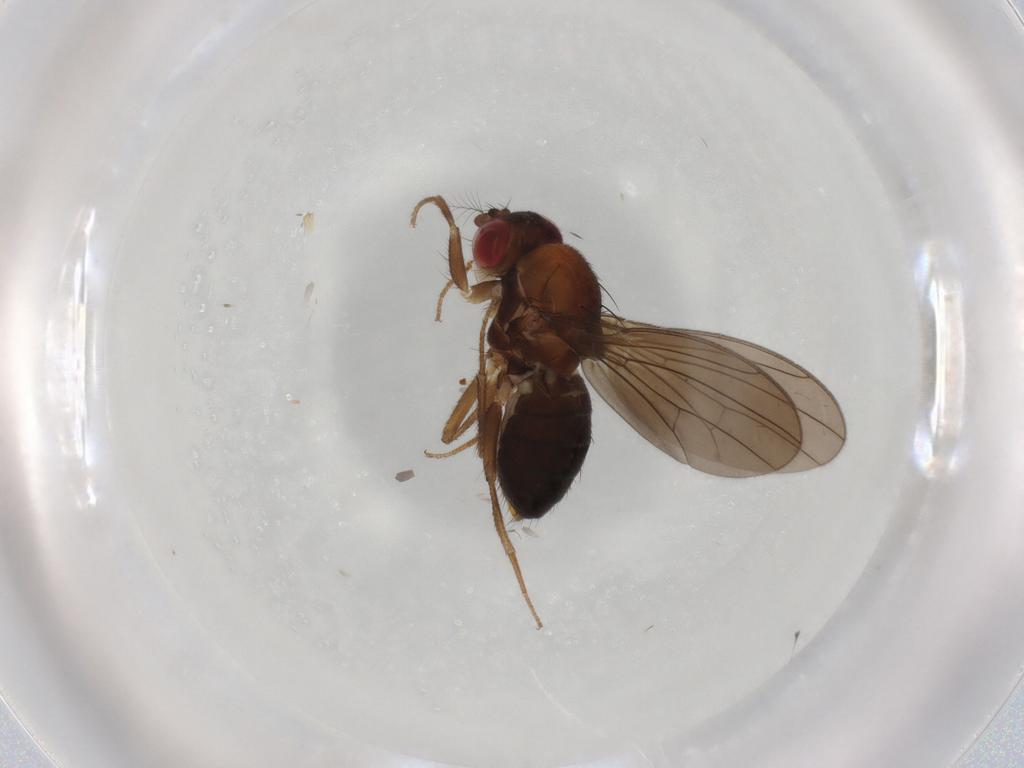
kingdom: Animalia
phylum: Arthropoda
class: Insecta
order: Diptera
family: Drosophilidae
